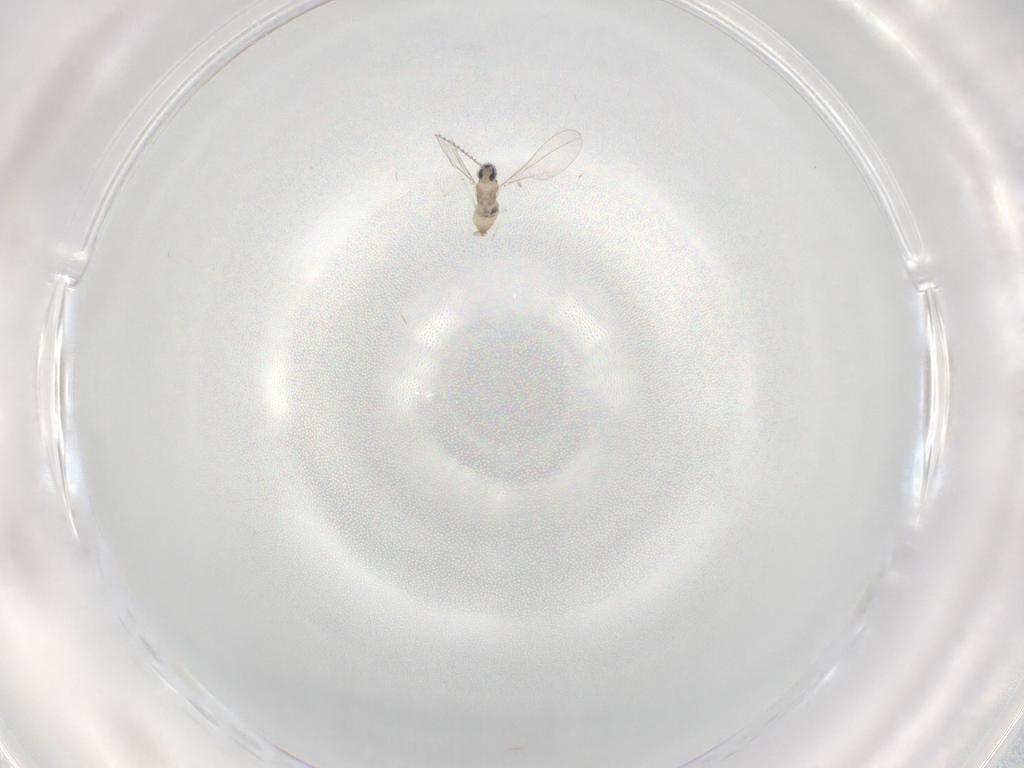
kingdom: Animalia
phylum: Arthropoda
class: Insecta
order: Diptera
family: Cecidomyiidae
